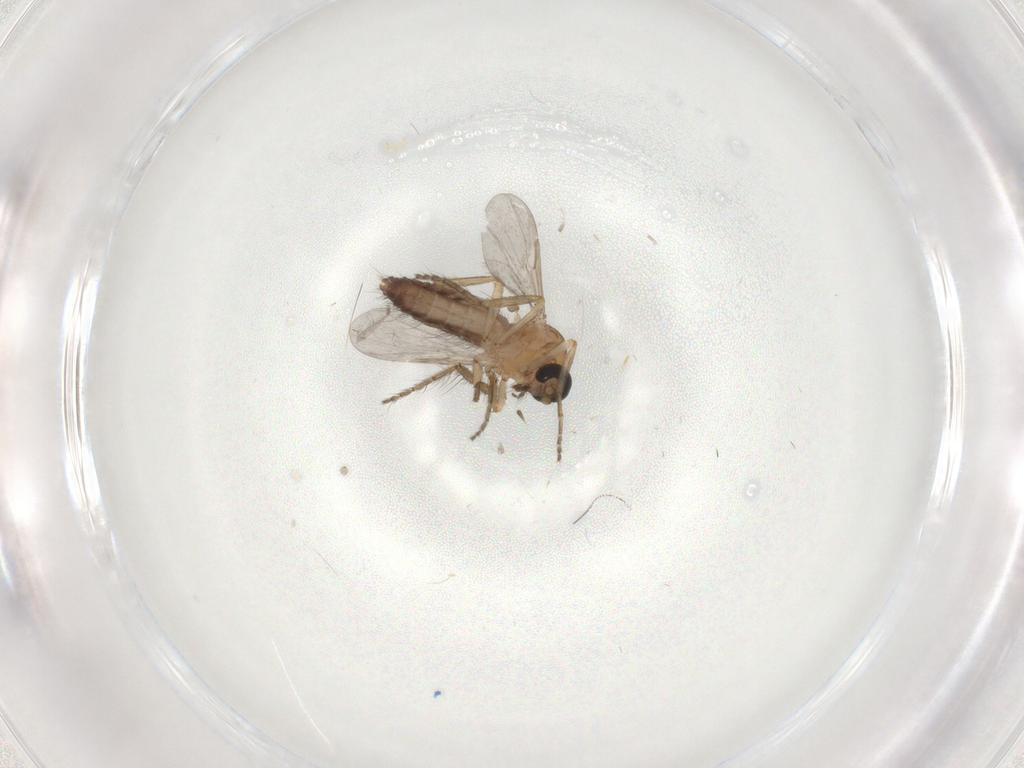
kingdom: Animalia
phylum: Arthropoda
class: Insecta
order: Diptera
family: Ceratopogonidae
